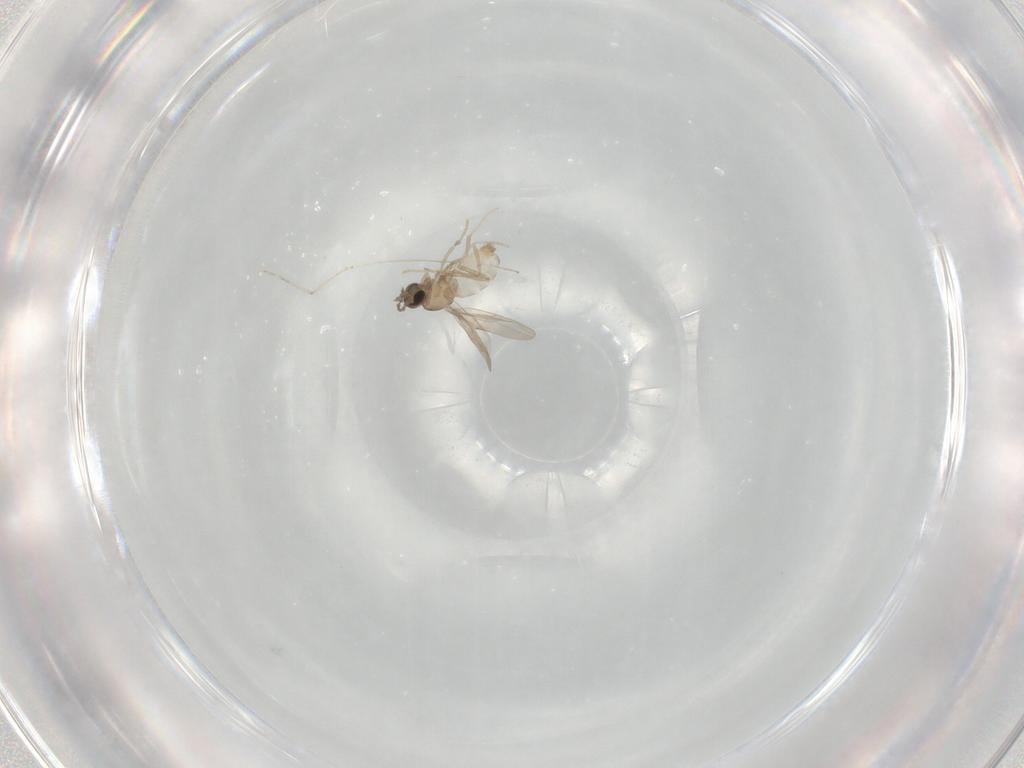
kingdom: Animalia
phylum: Arthropoda
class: Insecta
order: Diptera
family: Cecidomyiidae
